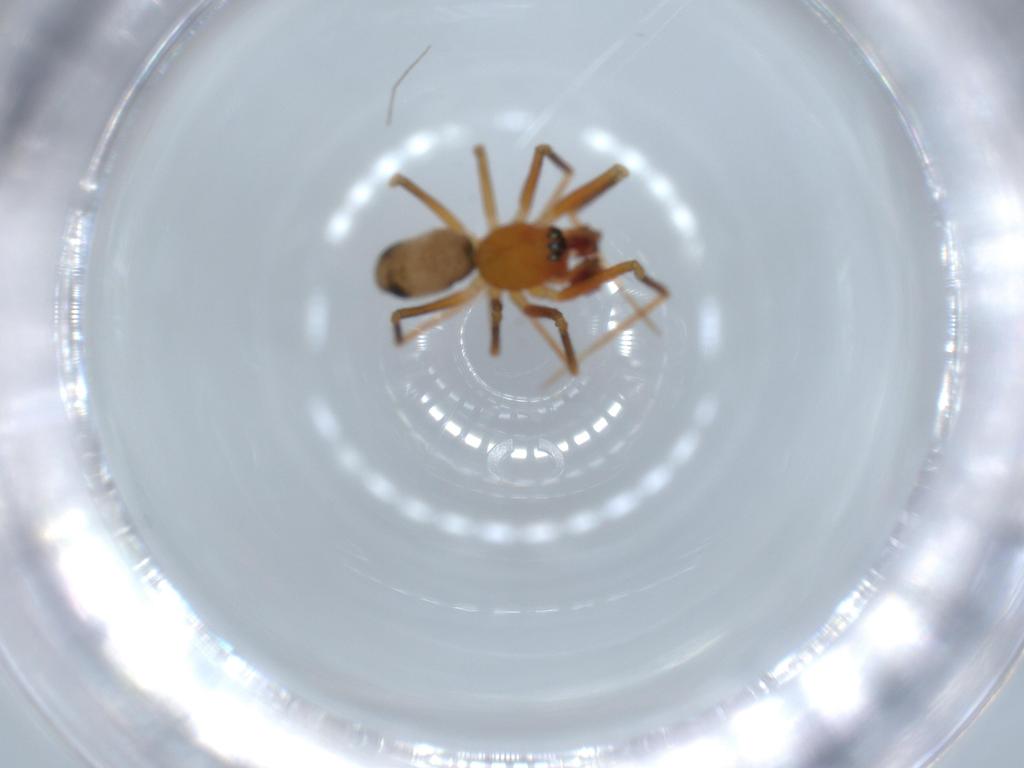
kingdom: Animalia
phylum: Arthropoda
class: Arachnida
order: Araneae
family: Linyphiidae
